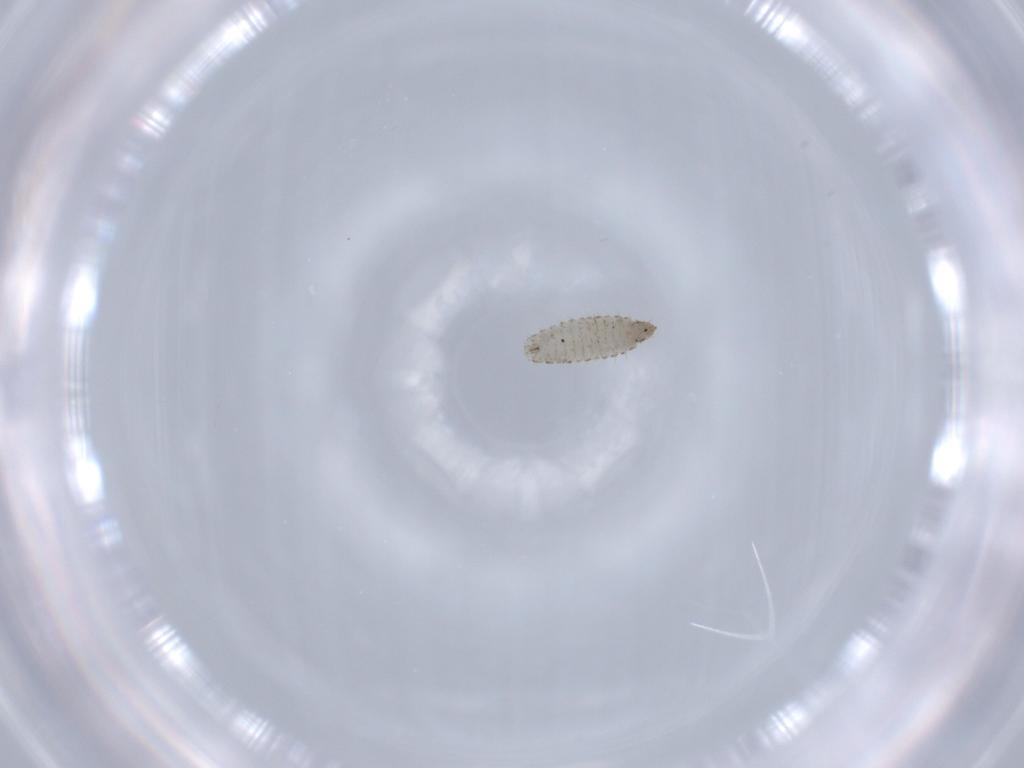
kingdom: Animalia
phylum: Arthropoda
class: Insecta
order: Diptera
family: Stratiomyidae
